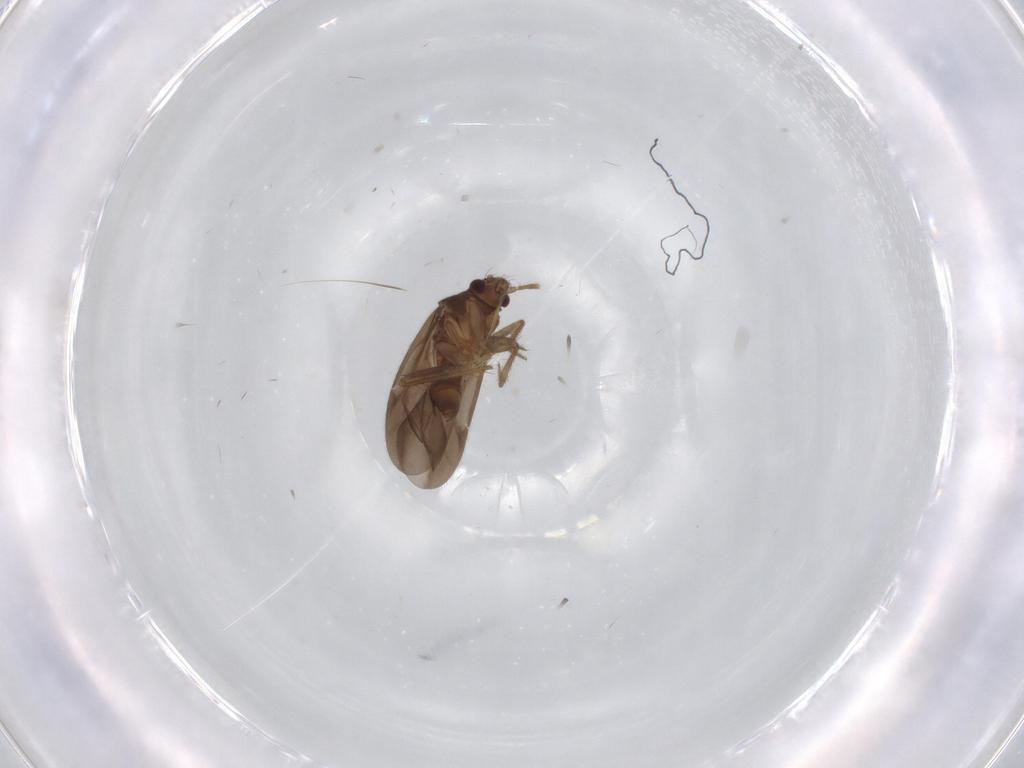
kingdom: Animalia
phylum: Arthropoda
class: Insecta
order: Hemiptera
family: Ceratocombidae
